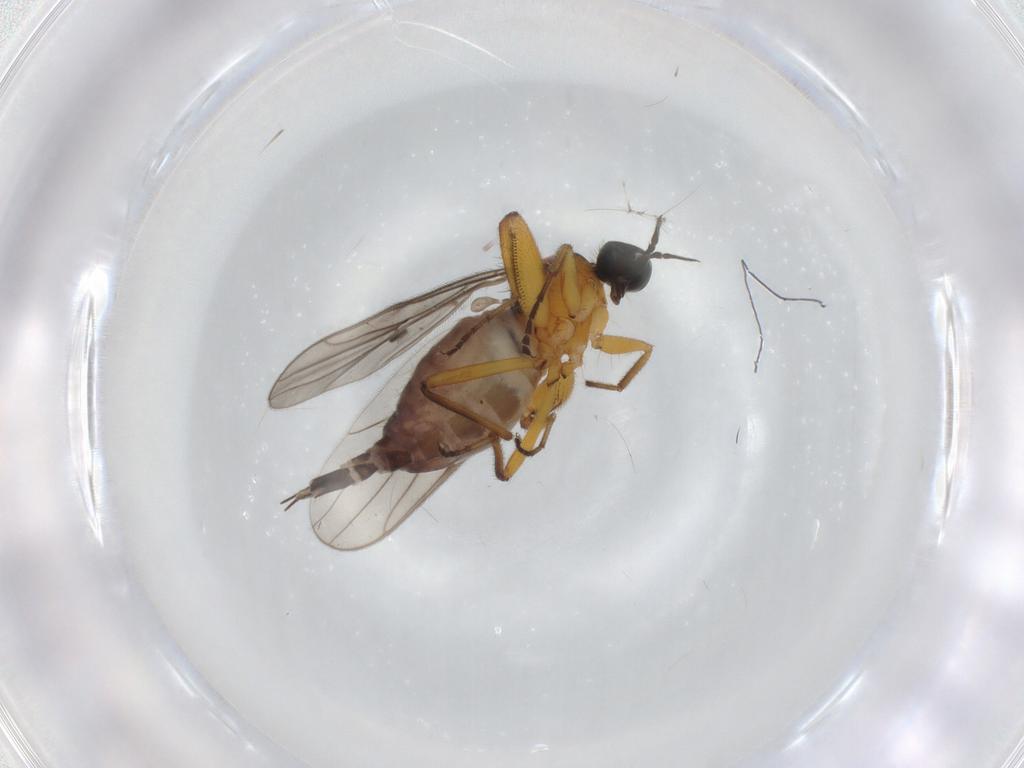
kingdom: Animalia
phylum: Arthropoda
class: Insecta
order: Diptera
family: Hybotidae
